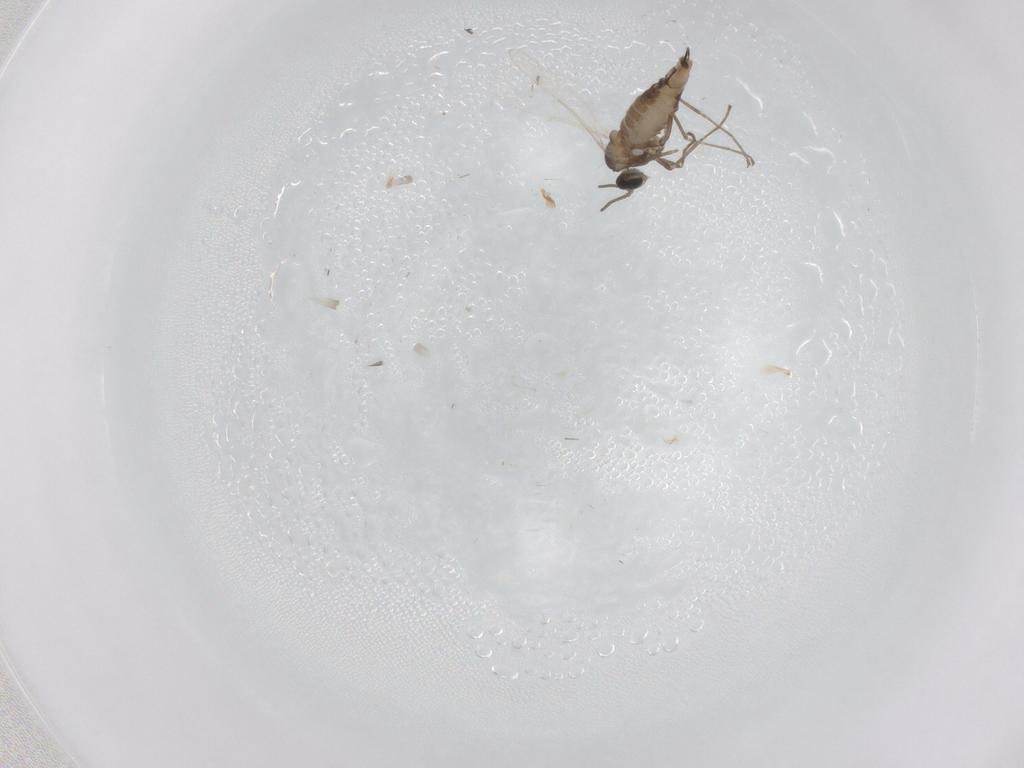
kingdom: Animalia
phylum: Arthropoda
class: Insecta
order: Diptera
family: Cecidomyiidae
